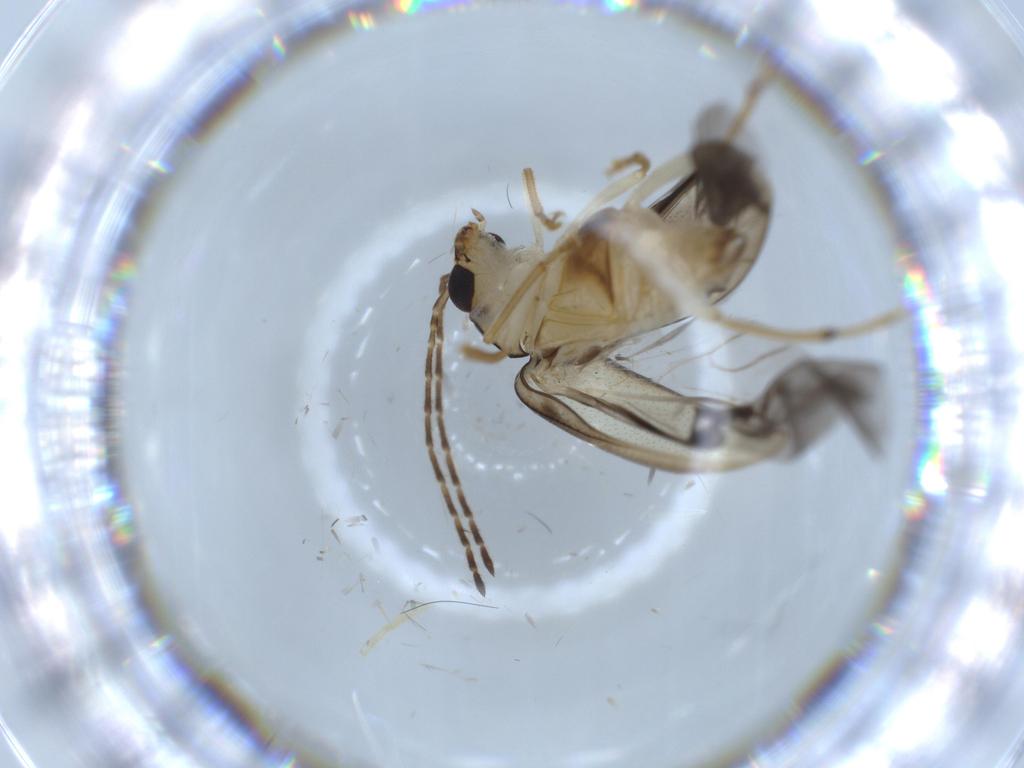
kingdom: Animalia
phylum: Arthropoda
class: Insecta
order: Coleoptera
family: Chrysomelidae
